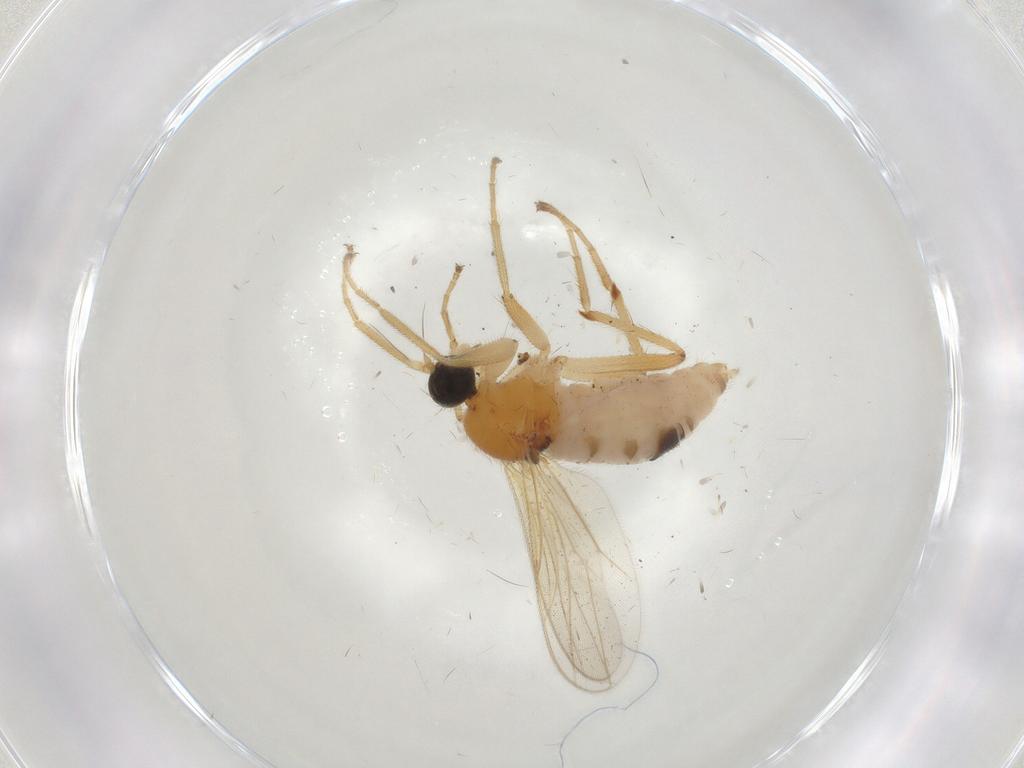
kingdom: Animalia
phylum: Arthropoda
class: Insecta
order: Diptera
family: Hybotidae
